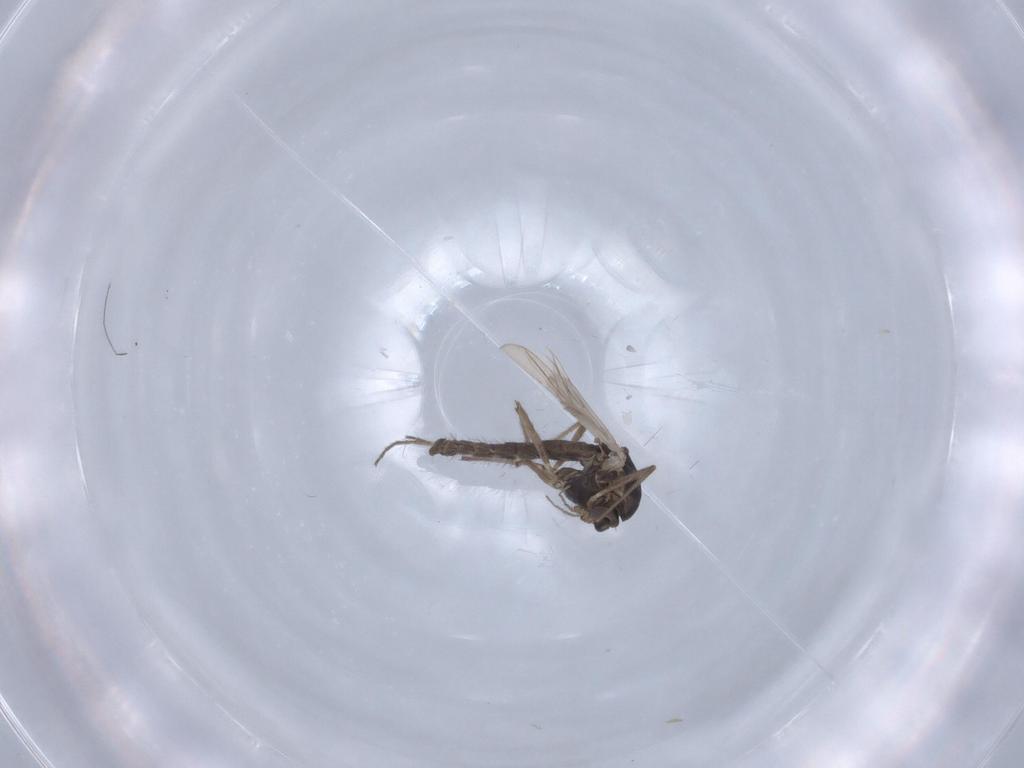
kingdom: Animalia
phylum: Arthropoda
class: Insecta
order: Diptera
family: Chironomidae
